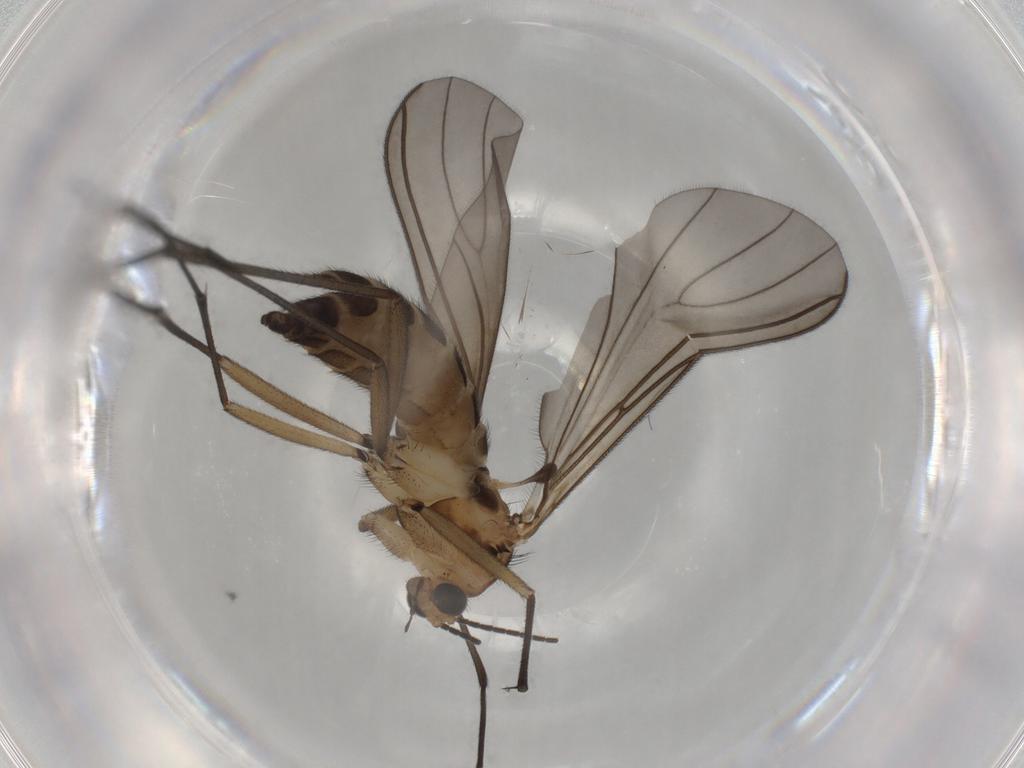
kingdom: Animalia
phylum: Arthropoda
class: Insecta
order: Diptera
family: Sciaridae
